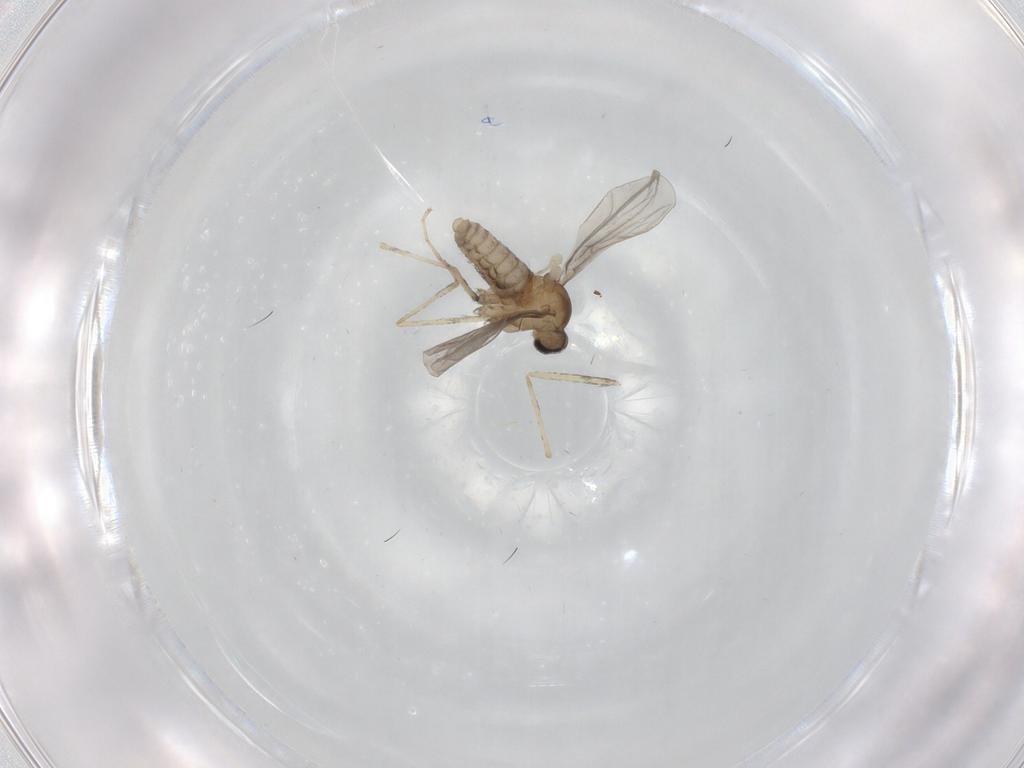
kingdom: Animalia
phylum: Arthropoda
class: Insecta
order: Diptera
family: Cecidomyiidae
